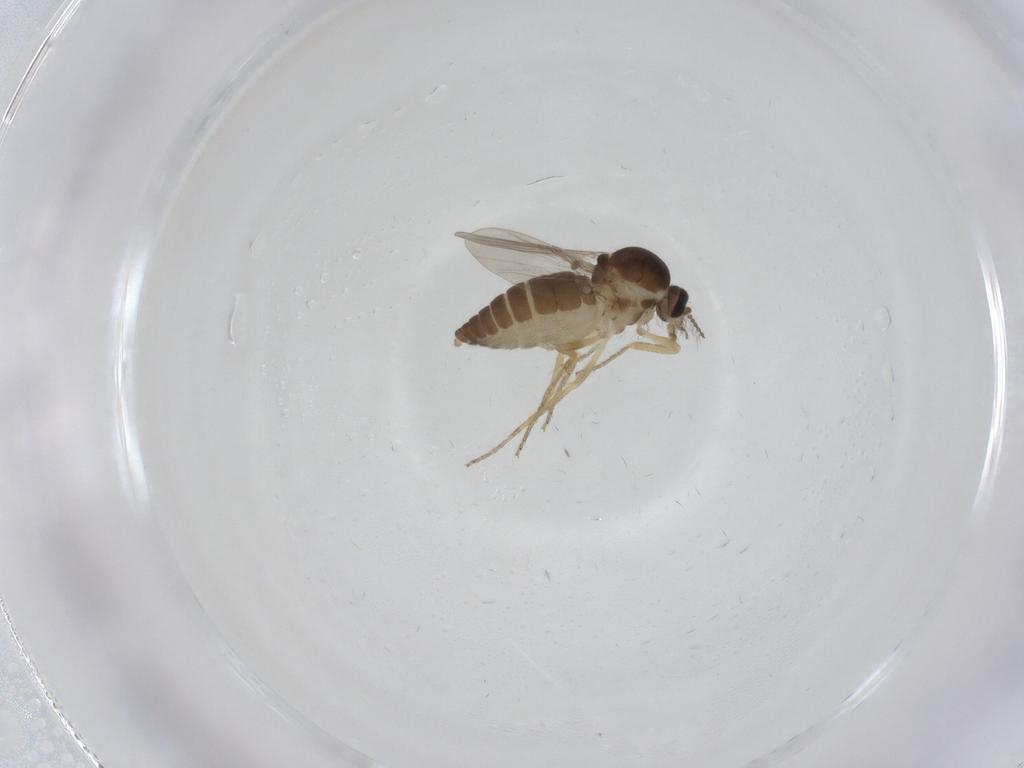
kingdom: Animalia
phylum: Arthropoda
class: Insecta
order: Diptera
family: Ceratopogonidae
